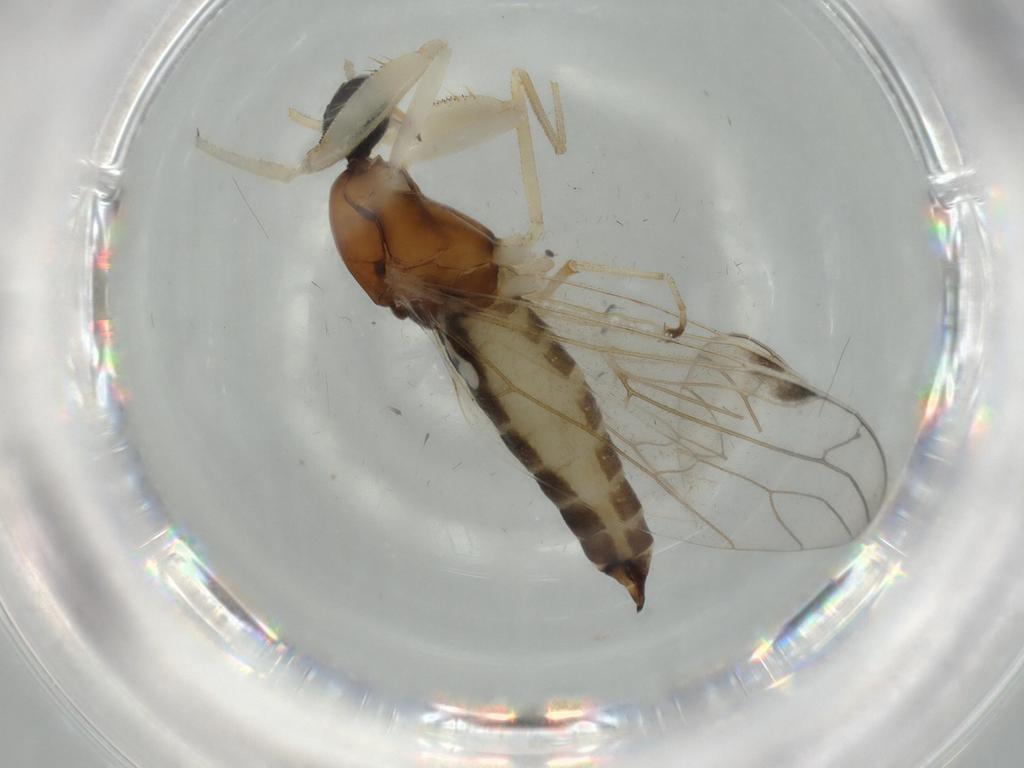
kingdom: Animalia
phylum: Arthropoda
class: Insecta
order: Diptera
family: Empididae
